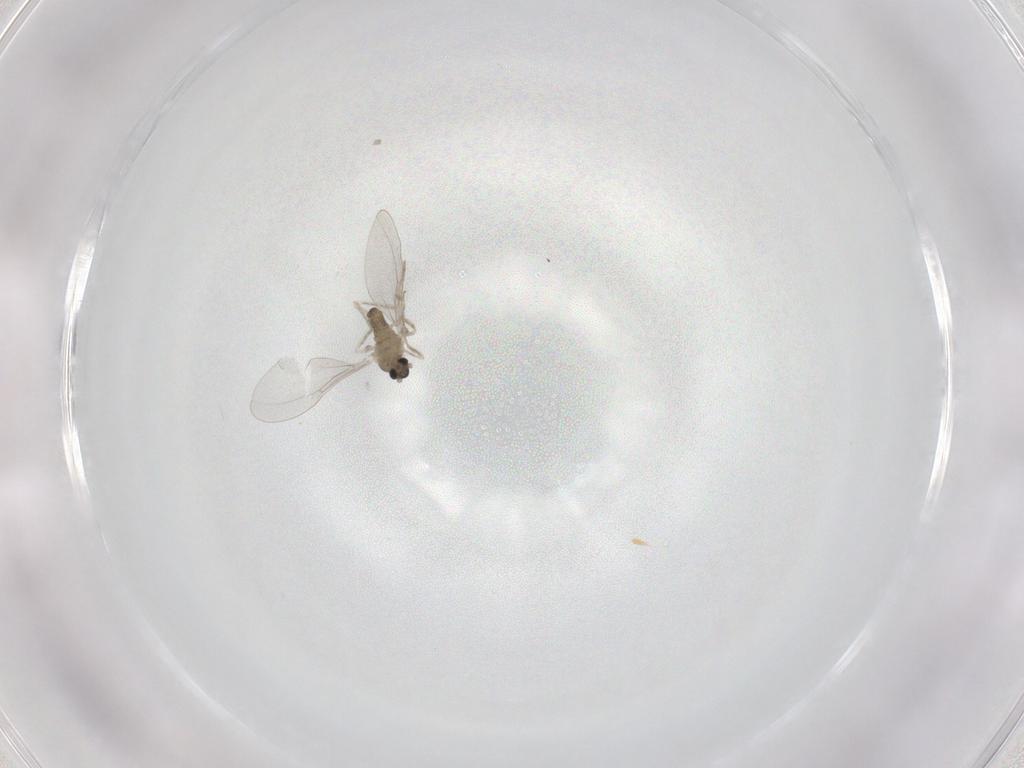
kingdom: Animalia
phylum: Arthropoda
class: Insecta
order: Diptera
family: Cecidomyiidae
